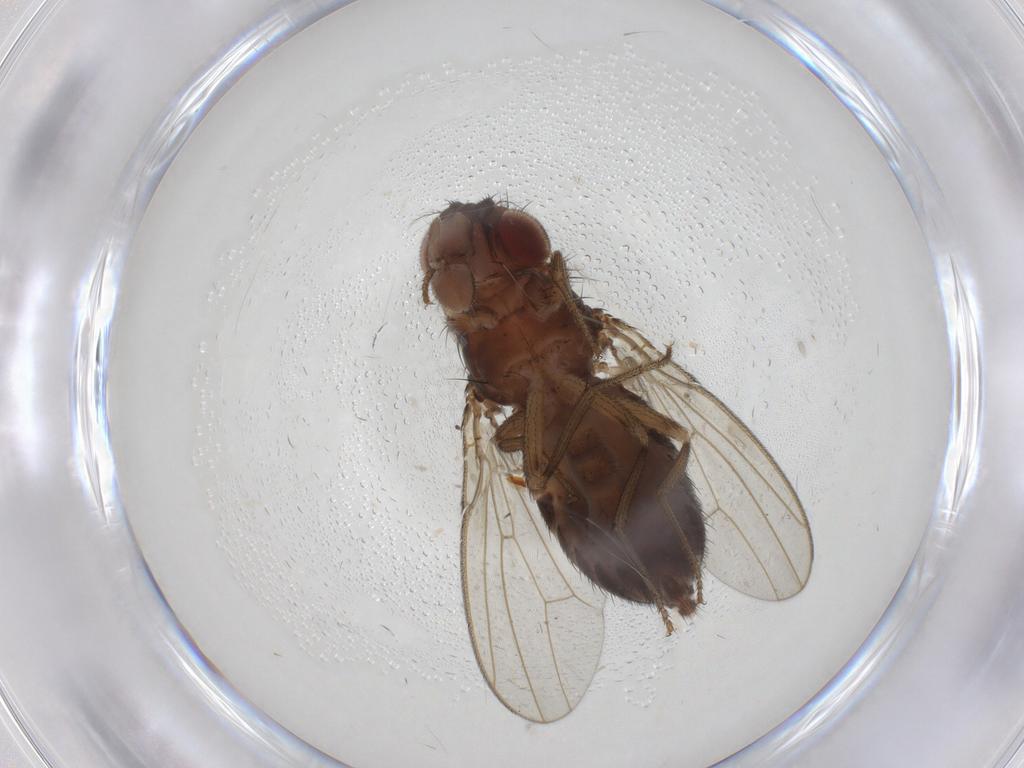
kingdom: Animalia
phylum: Arthropoda
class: Insecta
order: Diptera
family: Drosophilidae
